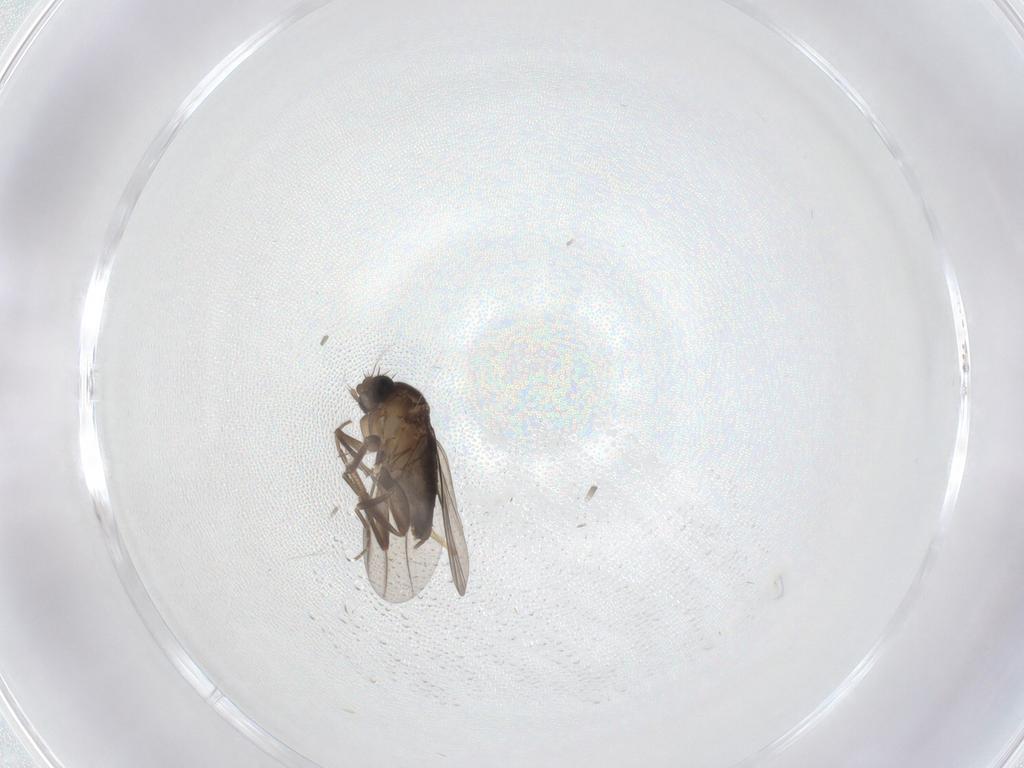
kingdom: Animalia
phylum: Arthropoda
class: Insecta
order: Diptera
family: Phoridae
